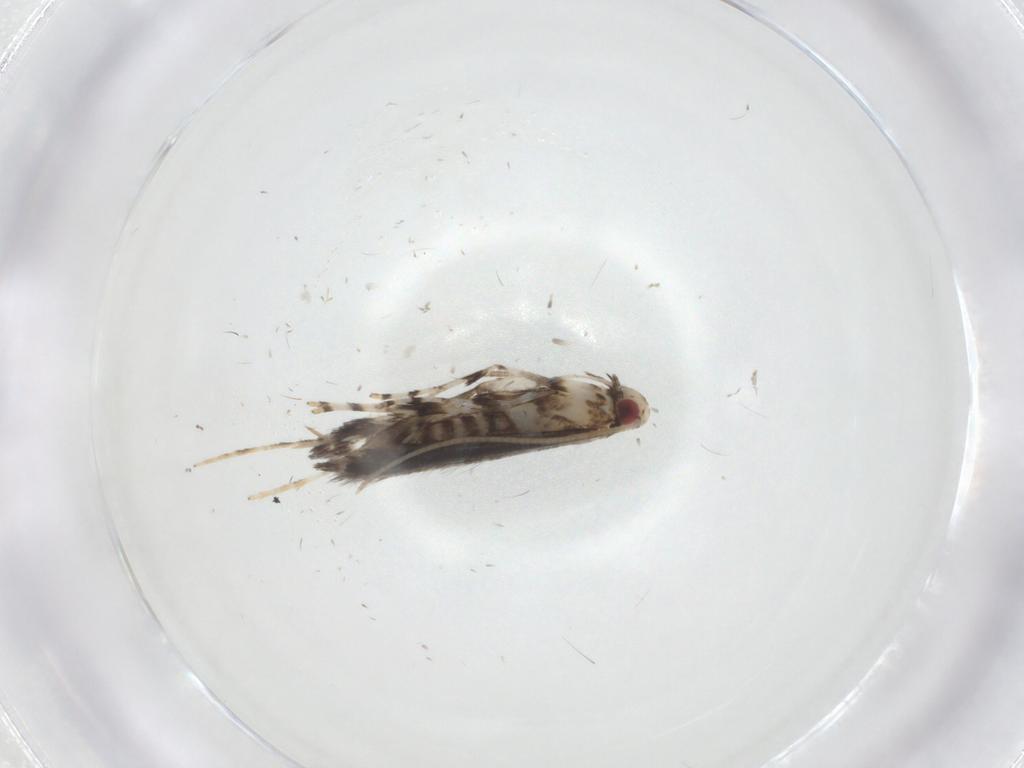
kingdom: Animalia
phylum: Arthropoda
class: Insecta
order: Lepidoptera
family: Gracillariidae
